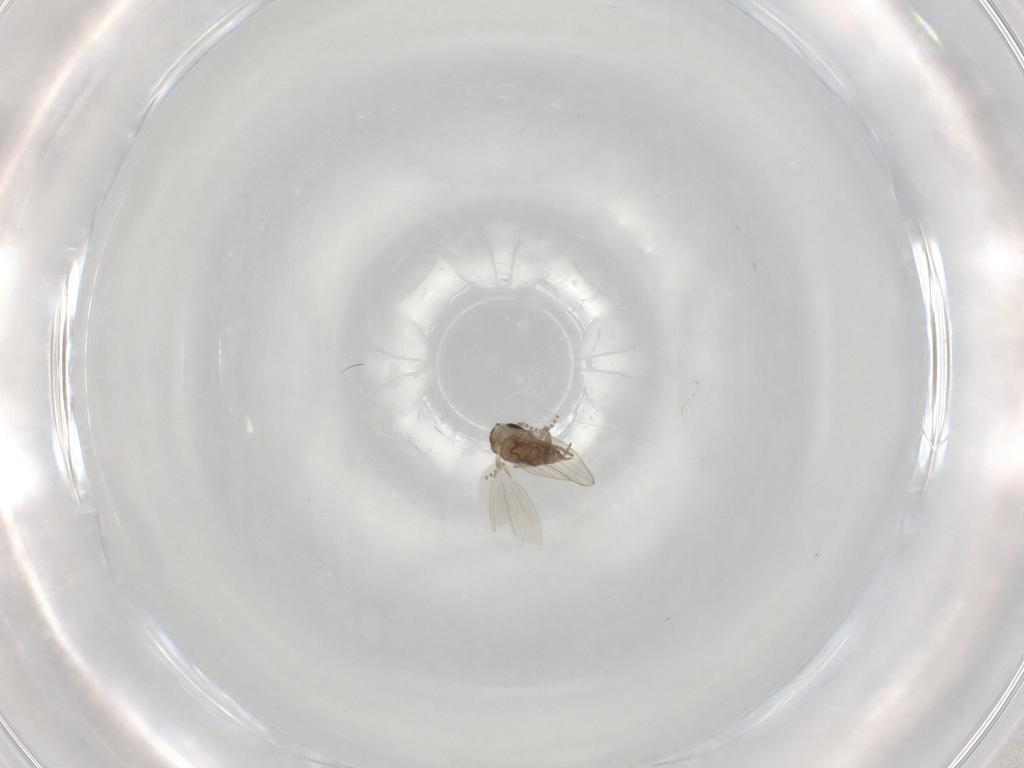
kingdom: Animalia
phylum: Arthropoda
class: Insecta
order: Diptera
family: Psychodidae
